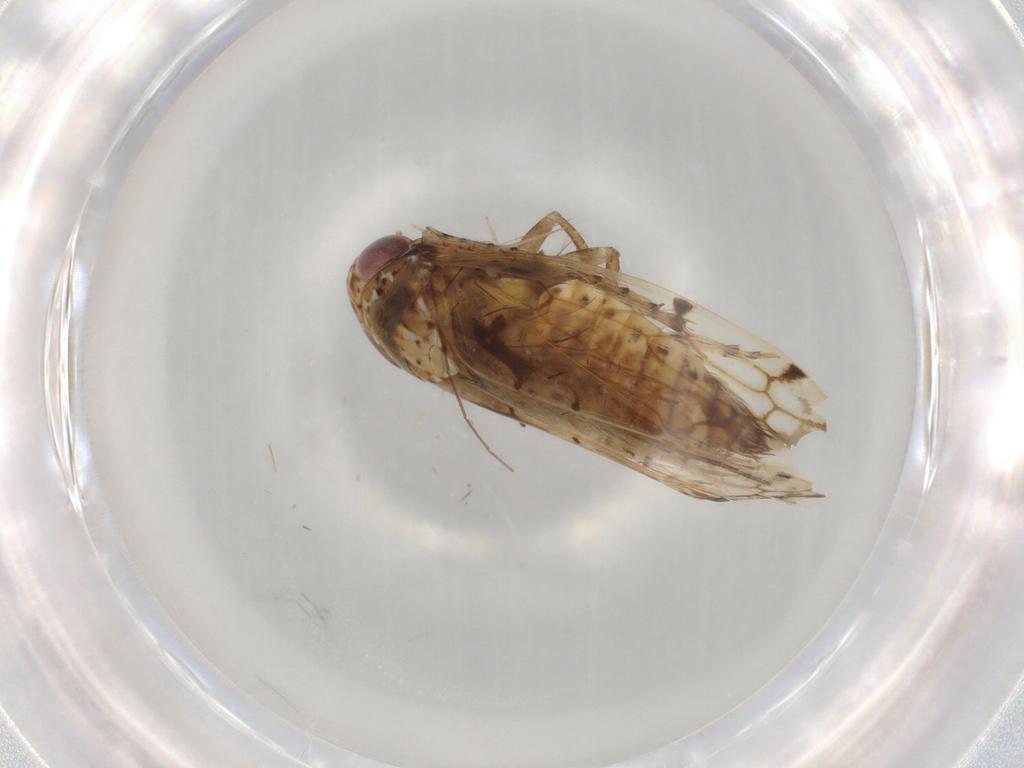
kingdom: Animalia
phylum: Arthropoda
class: Insecta
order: Hemiptera
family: Cicadellidae
